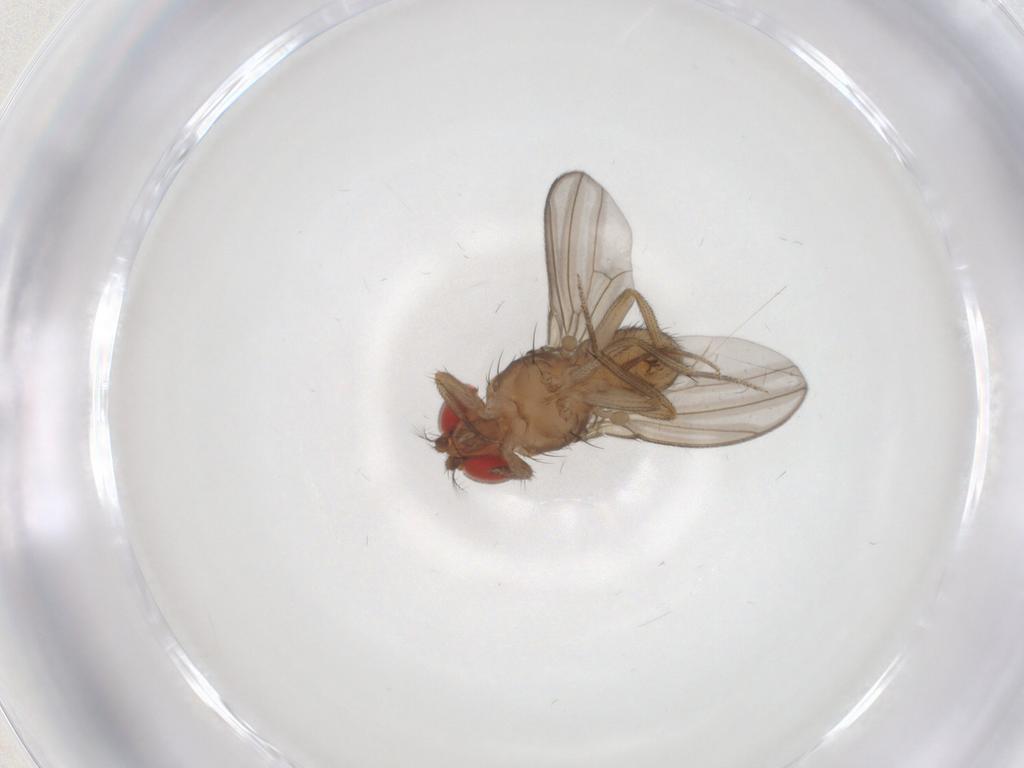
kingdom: Animalia
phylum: Arthropoda
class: Insecta
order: Diptera
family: Drosophilidae
